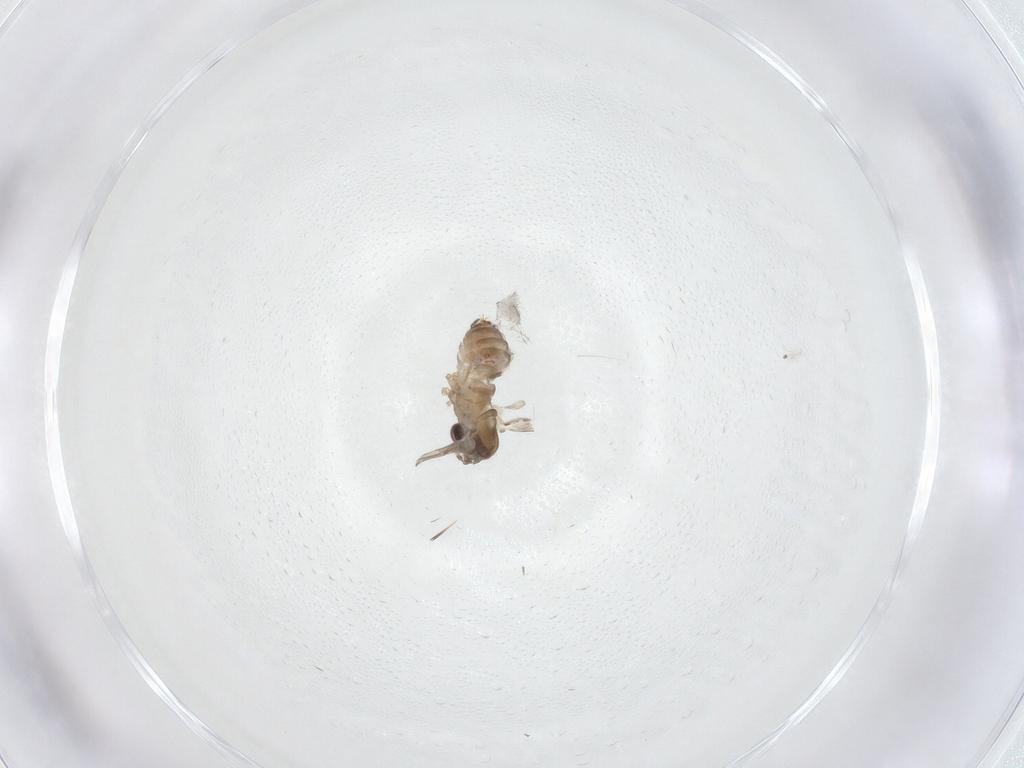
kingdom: Animalia
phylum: Arthropoda
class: Insecta
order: Diptera
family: Psychodidae
